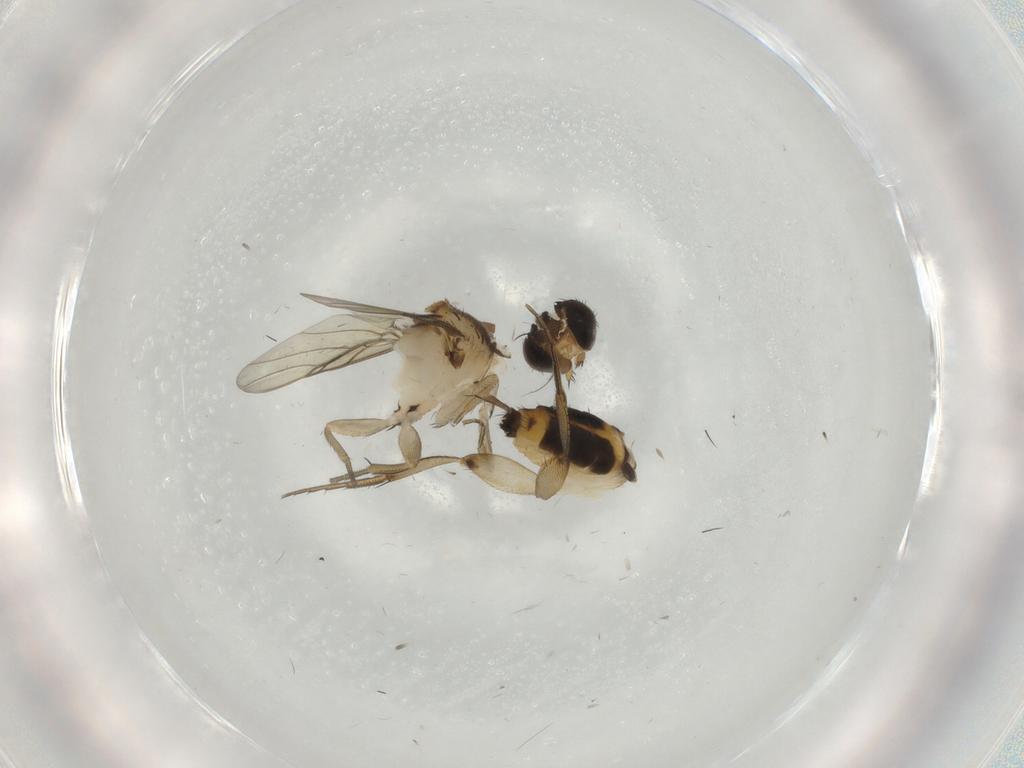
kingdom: Animalia
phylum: Arthropoda
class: Insecta
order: Diptera
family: Phoridae
